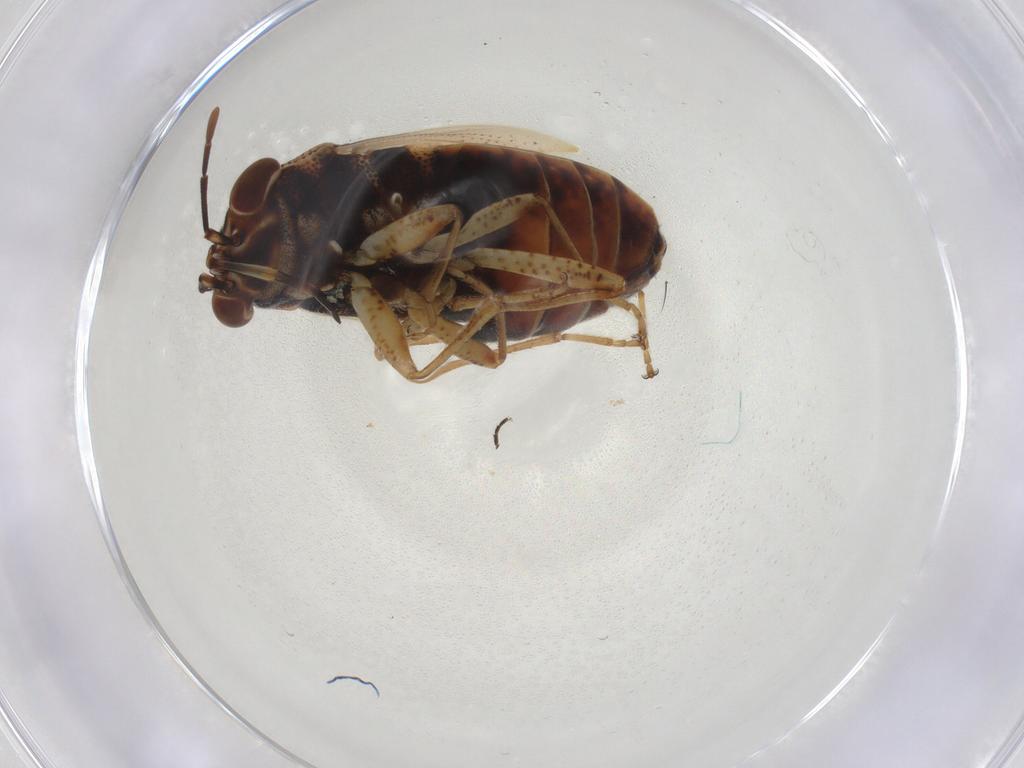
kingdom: Animalia
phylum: Arthropoda
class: Insecta
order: Hemiptera
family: Geocoridae
